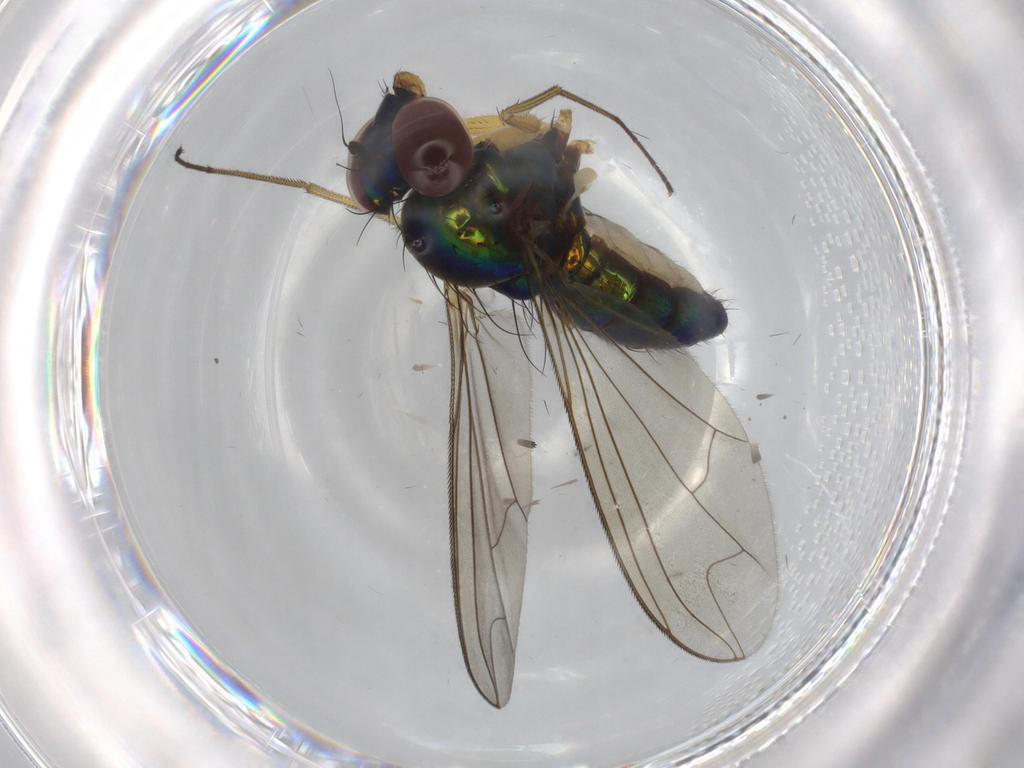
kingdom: Animalia
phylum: Arthropoda
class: Insecta
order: Diptera
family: Dolichopodidae
